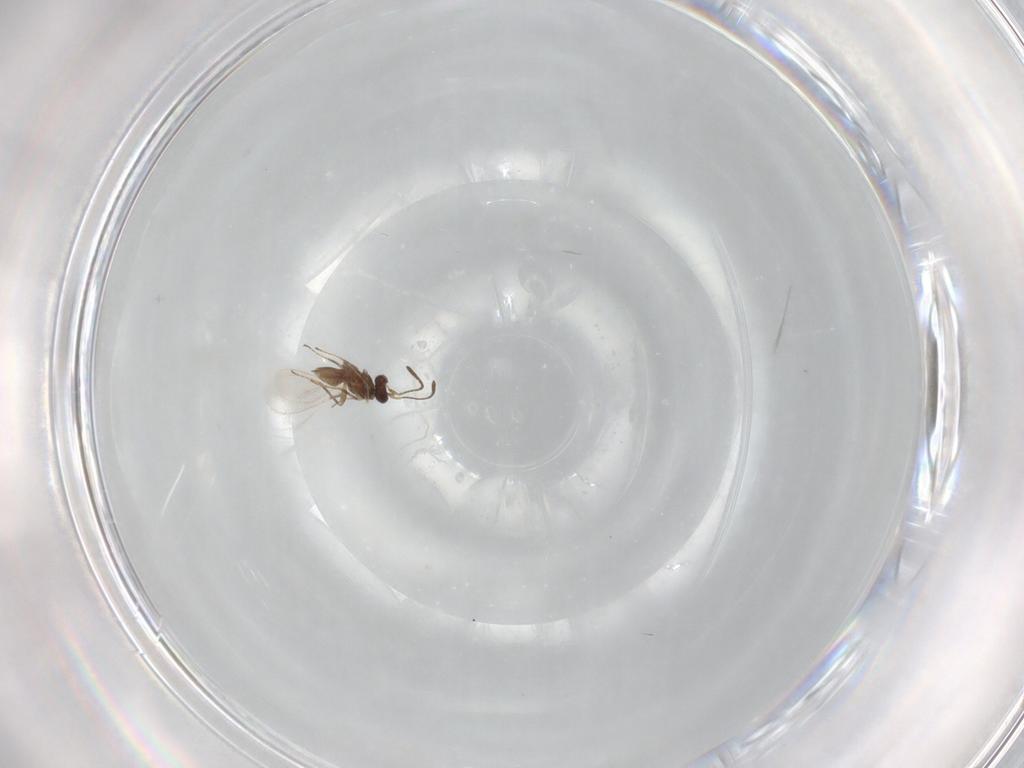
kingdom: Animalia
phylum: Arthropoda
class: Insecta
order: Hymenoptera
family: Mymaridae
